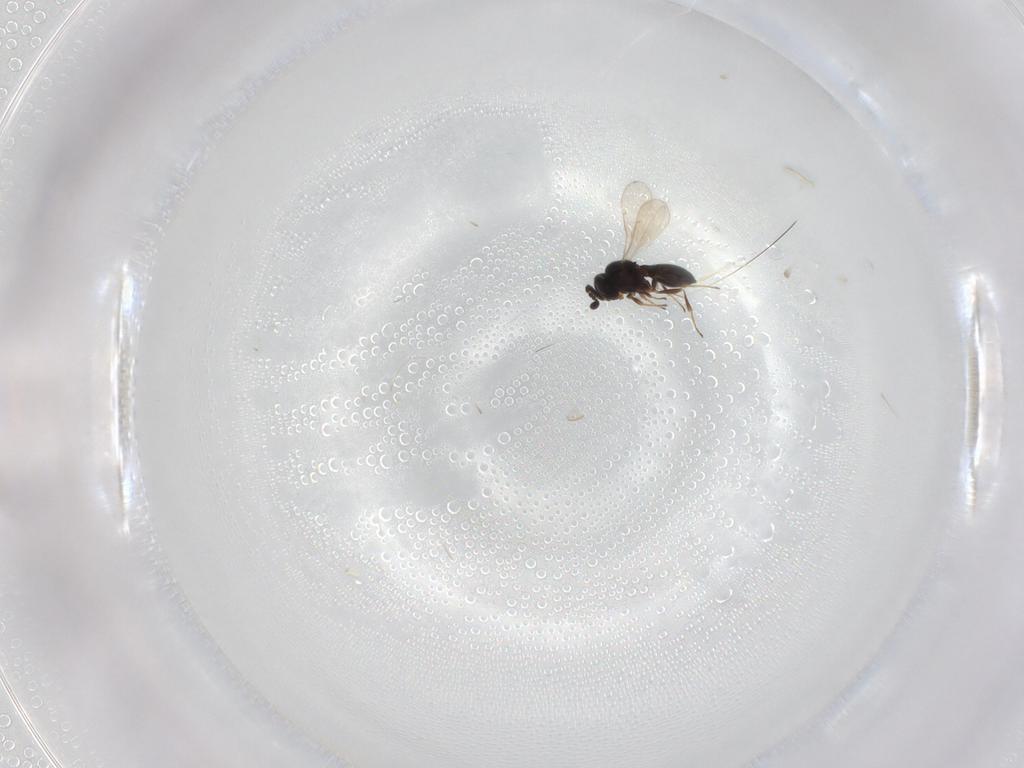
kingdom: Animalia
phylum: Arthropoda
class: Insecta
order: Hymenoptera
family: Scelionidae
